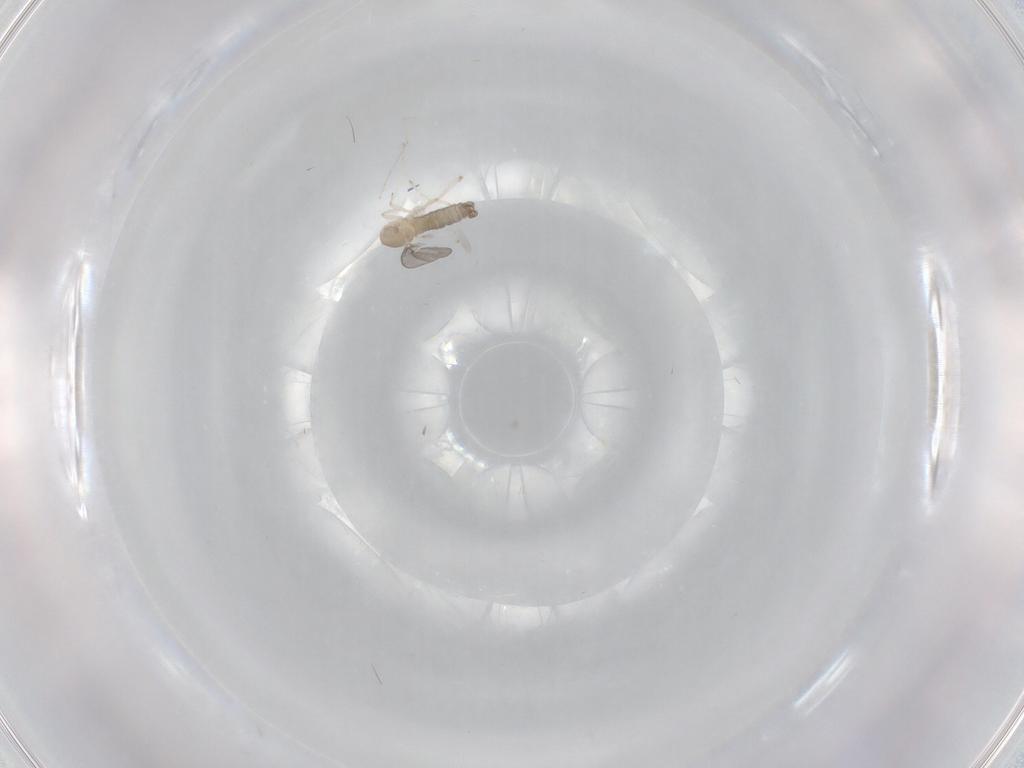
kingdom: Animalia
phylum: Arthropoda
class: Insecta
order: Diptera
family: Cecidomyiidae
